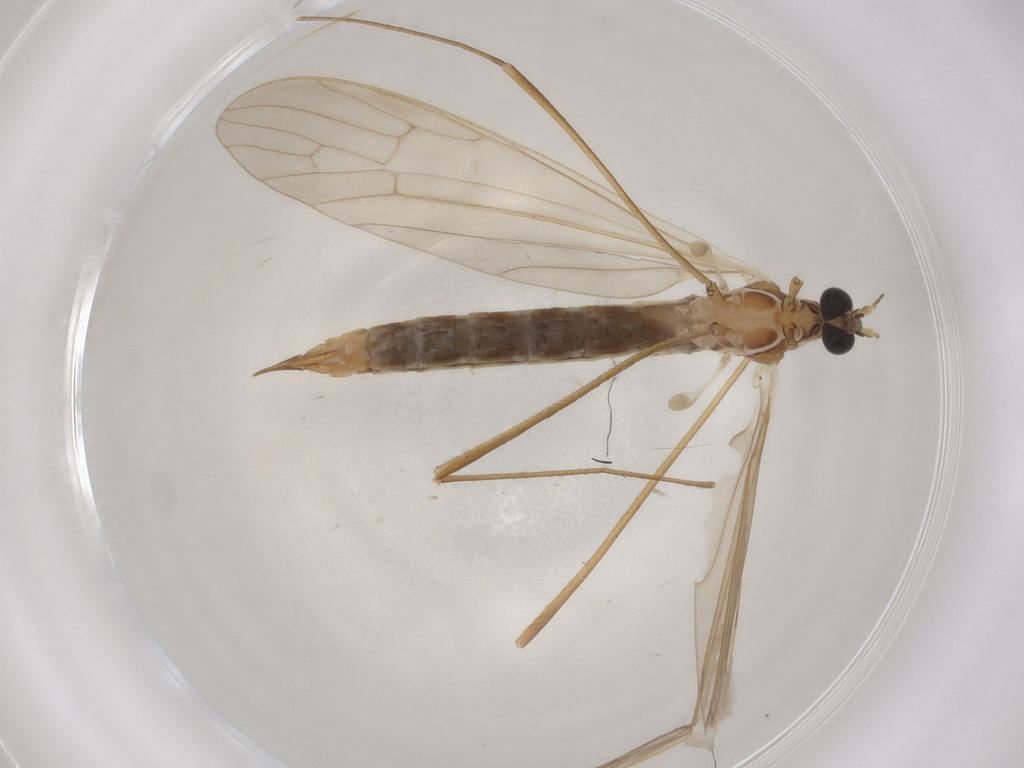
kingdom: Animalia
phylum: Arthropoda
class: Insecta
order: Diptera
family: Limoniidae
